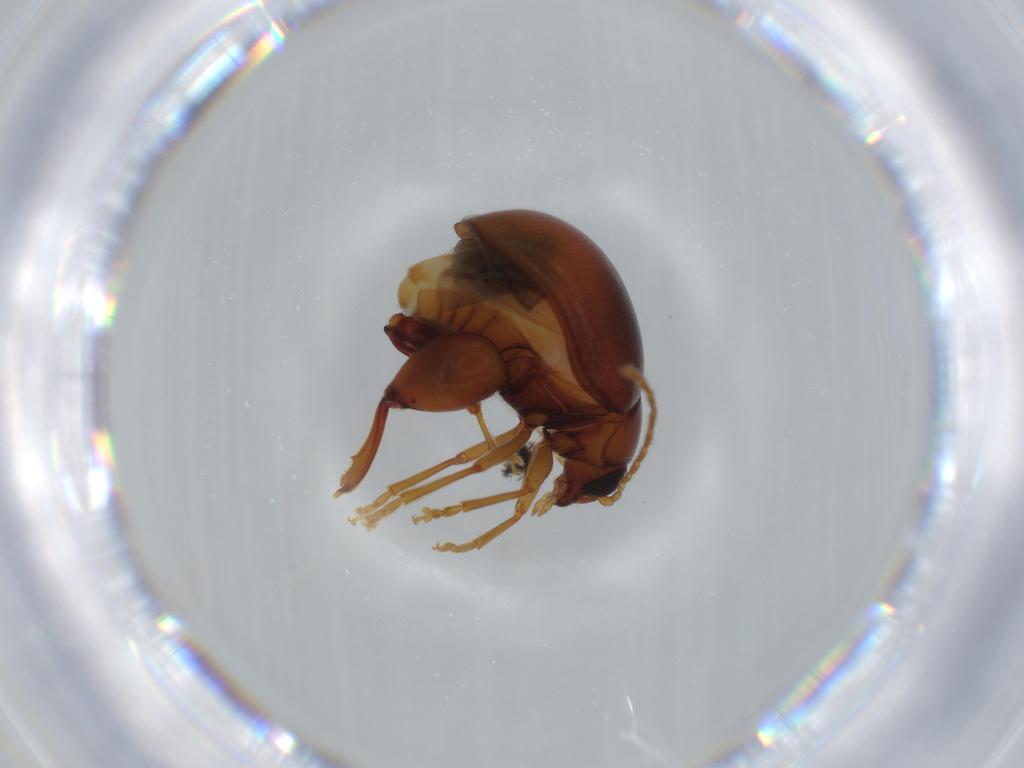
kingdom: Animalia
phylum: Arthropoda
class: Insecta
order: Coleoptera
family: Chrysomelidae
